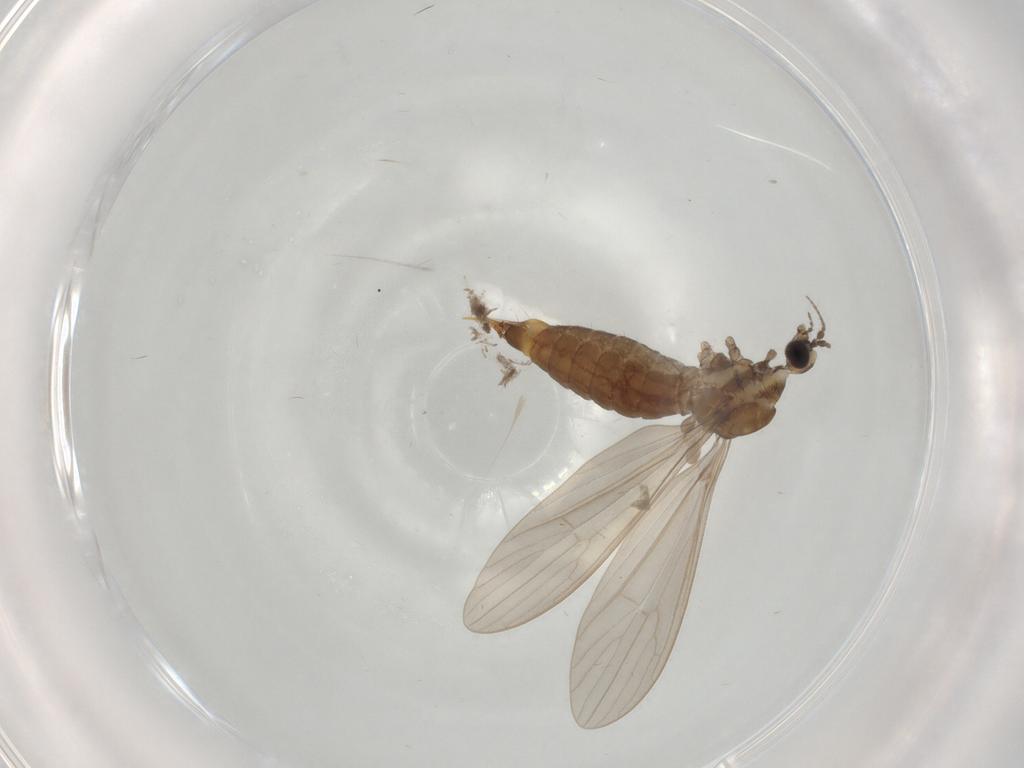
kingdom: Animalia
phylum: Arthropoda
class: Insecta
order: Diptera
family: Limoniidae
